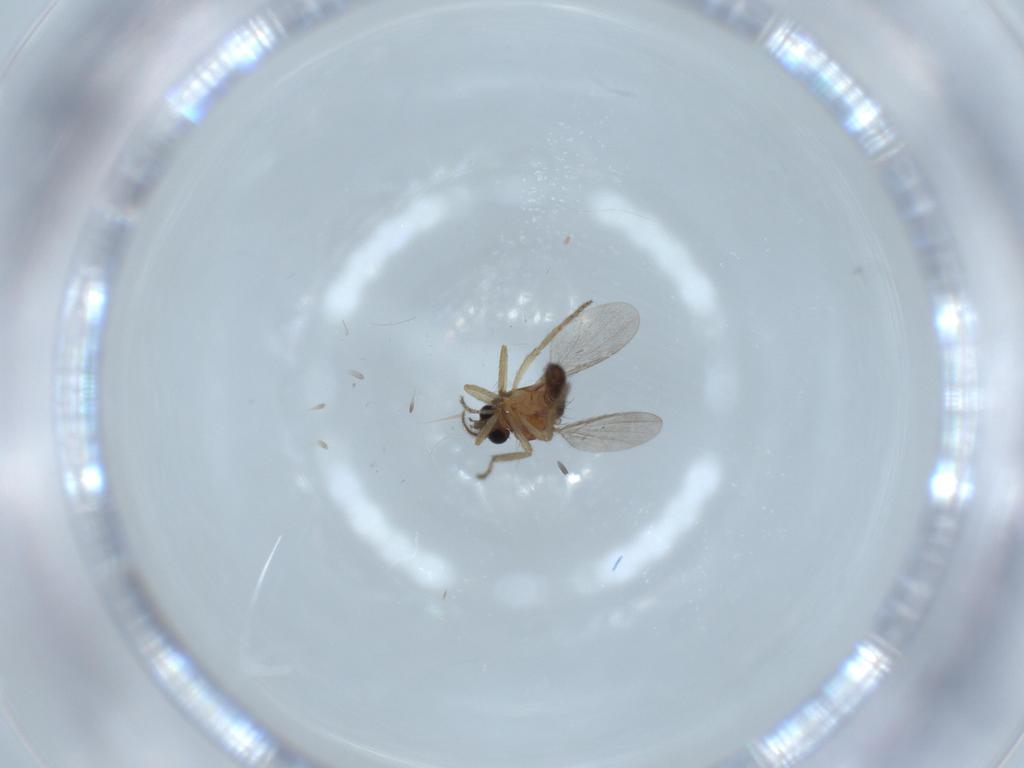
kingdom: Animalia
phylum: Arthropoda
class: Insecta
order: Diptera
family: Ceratopogonidae
